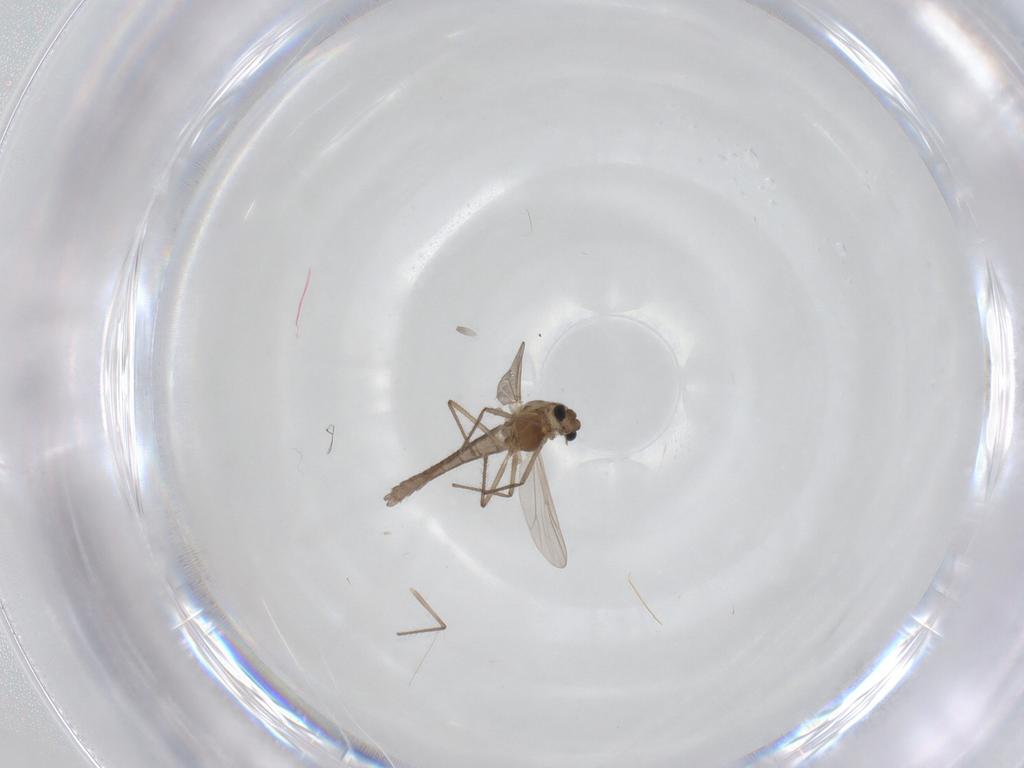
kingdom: Animalia
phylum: Arthropoda
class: Insecta
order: Diptera
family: Chironomidae
